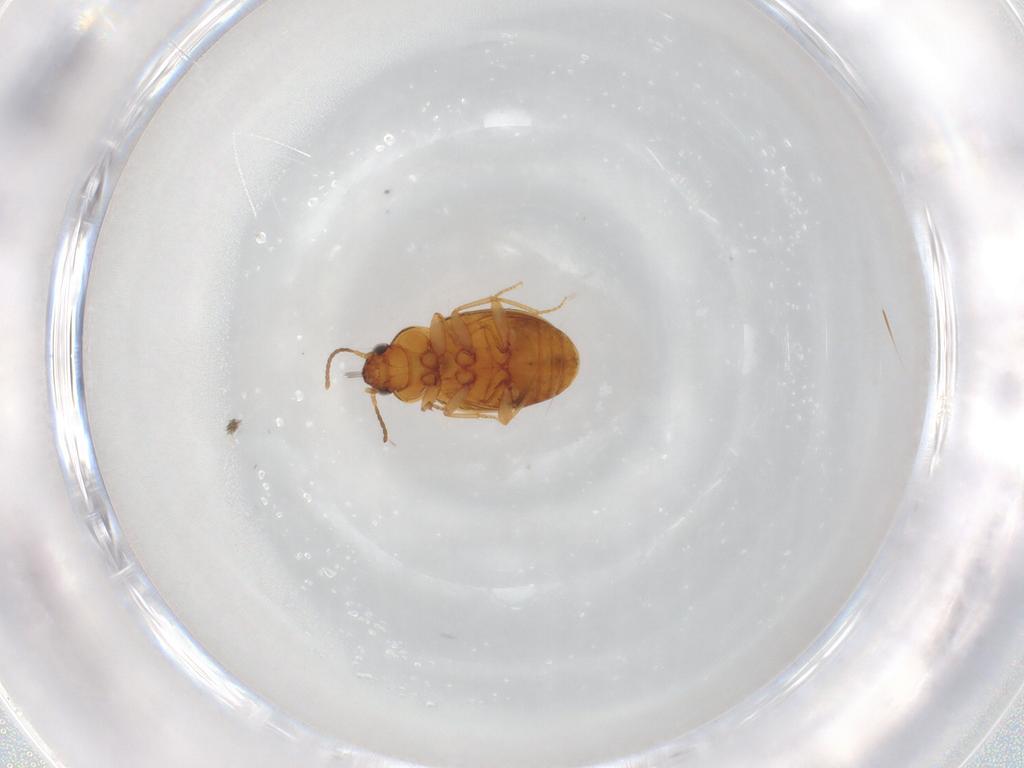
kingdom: Animalia
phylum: Arthropoda
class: Insecta
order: Coleoptera
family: Carabidae
